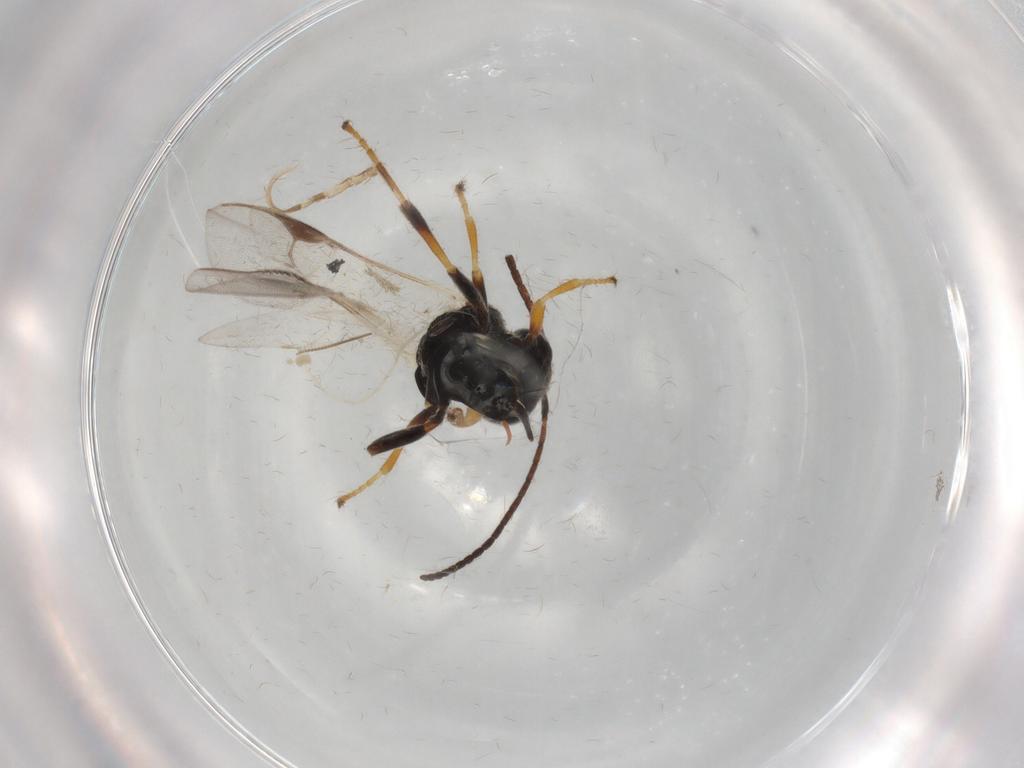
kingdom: Animalia
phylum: Arthropoda
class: Insecta
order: Hymenoptera
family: Braconidae
